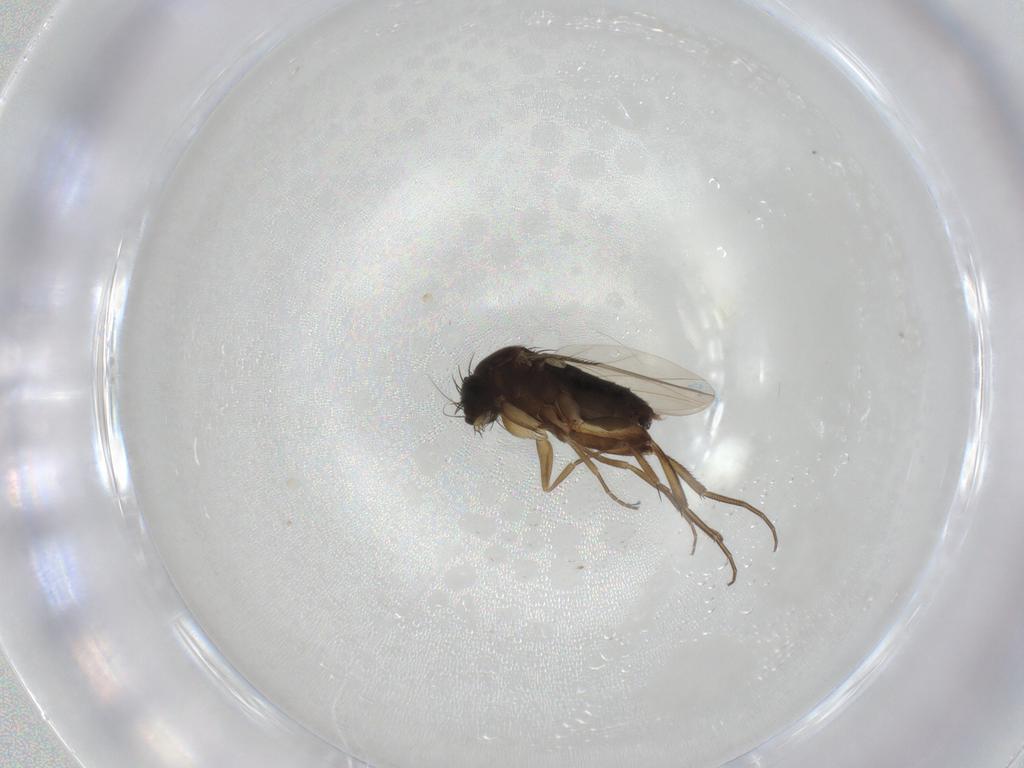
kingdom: Animalia
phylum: Arthropoda
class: Insecta
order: Diptera
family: Phoridae
